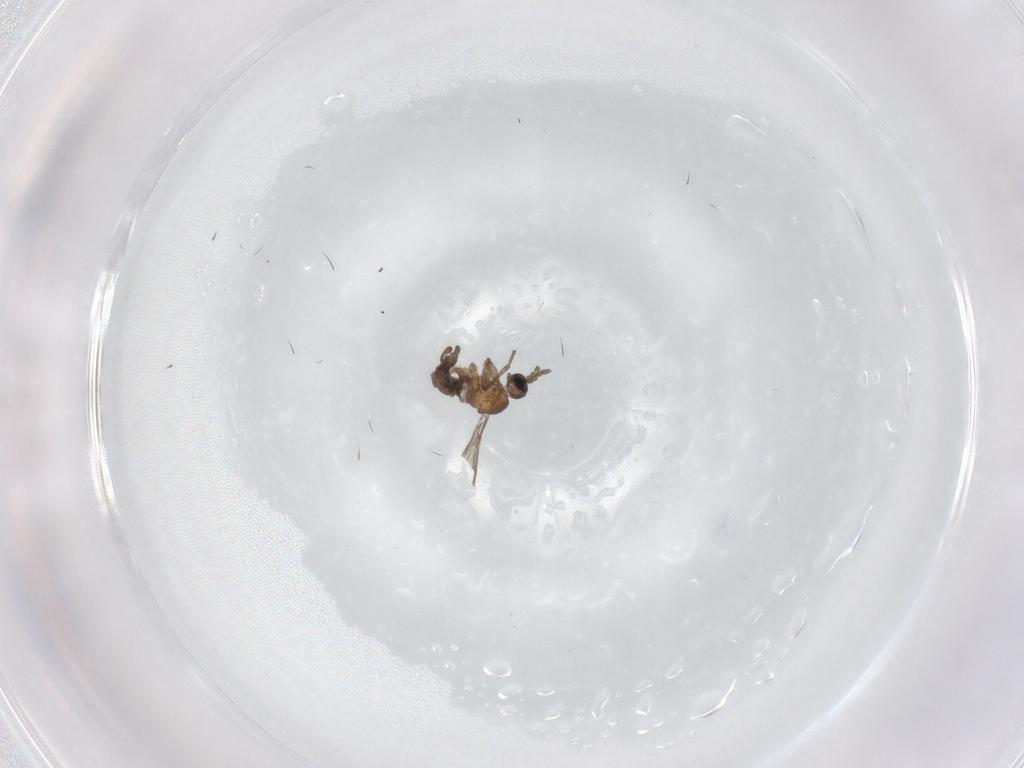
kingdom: Animalia
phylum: Arthropoda
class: Insecta
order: Diptera
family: Sciaridae
